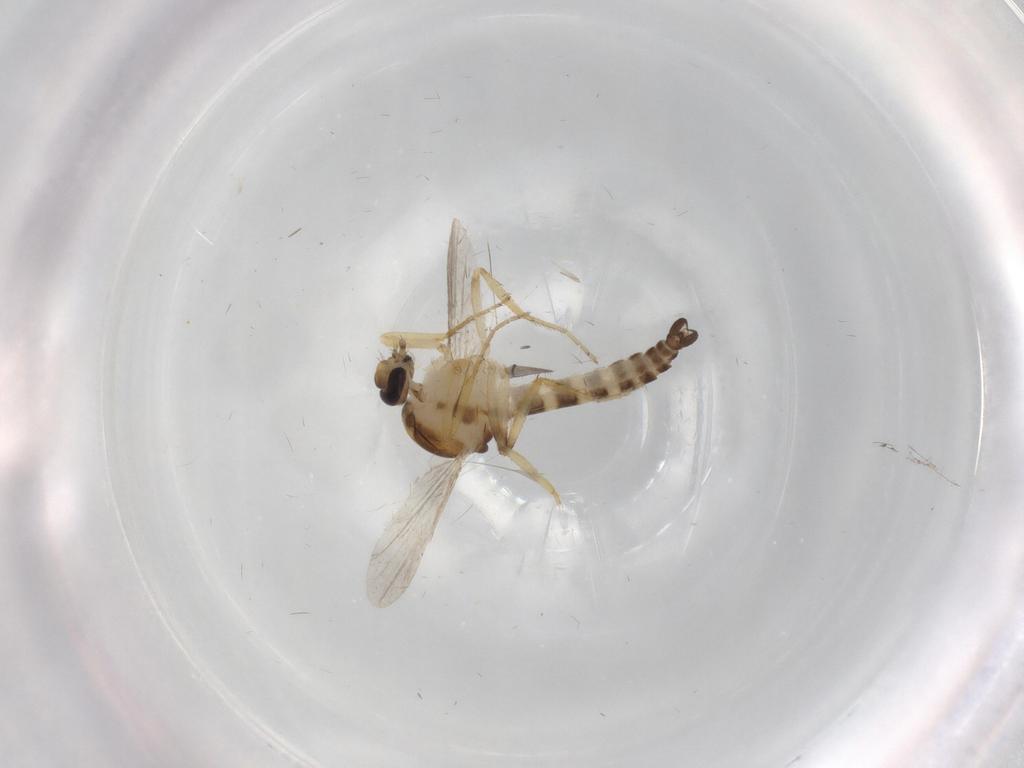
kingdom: Animalia
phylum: Arthropoda
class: Insecta
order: Diptera
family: Ceratopogonidae
